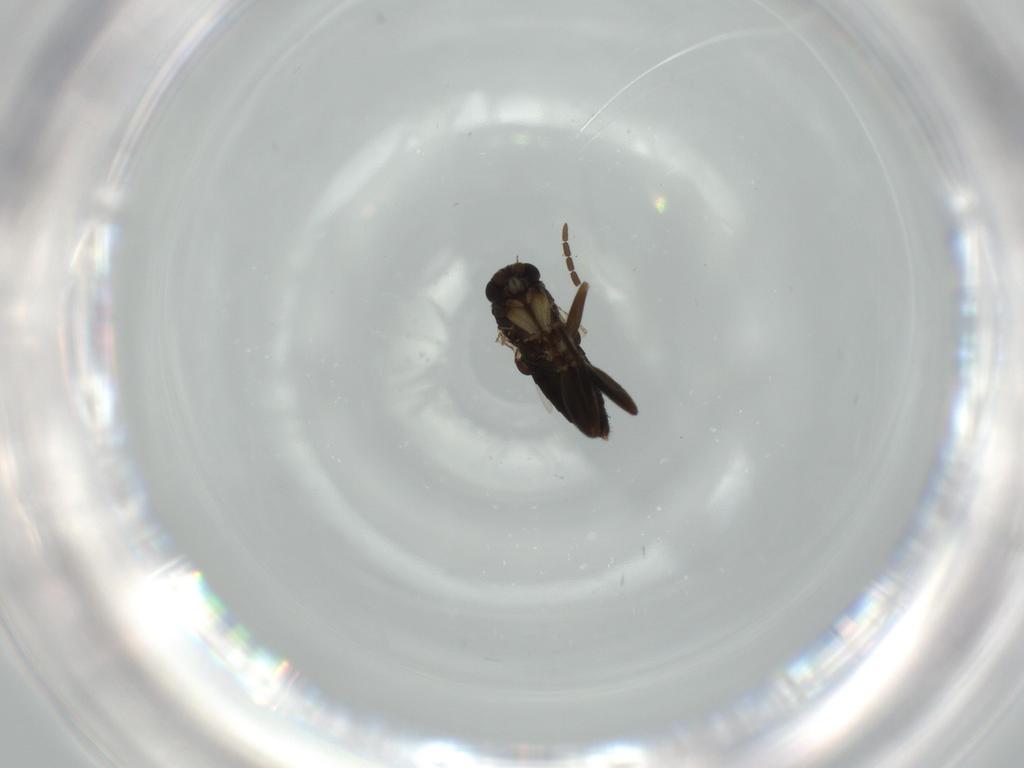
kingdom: Animalia
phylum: Arthropoda
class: Insecta
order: Diptera
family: Phoridae
